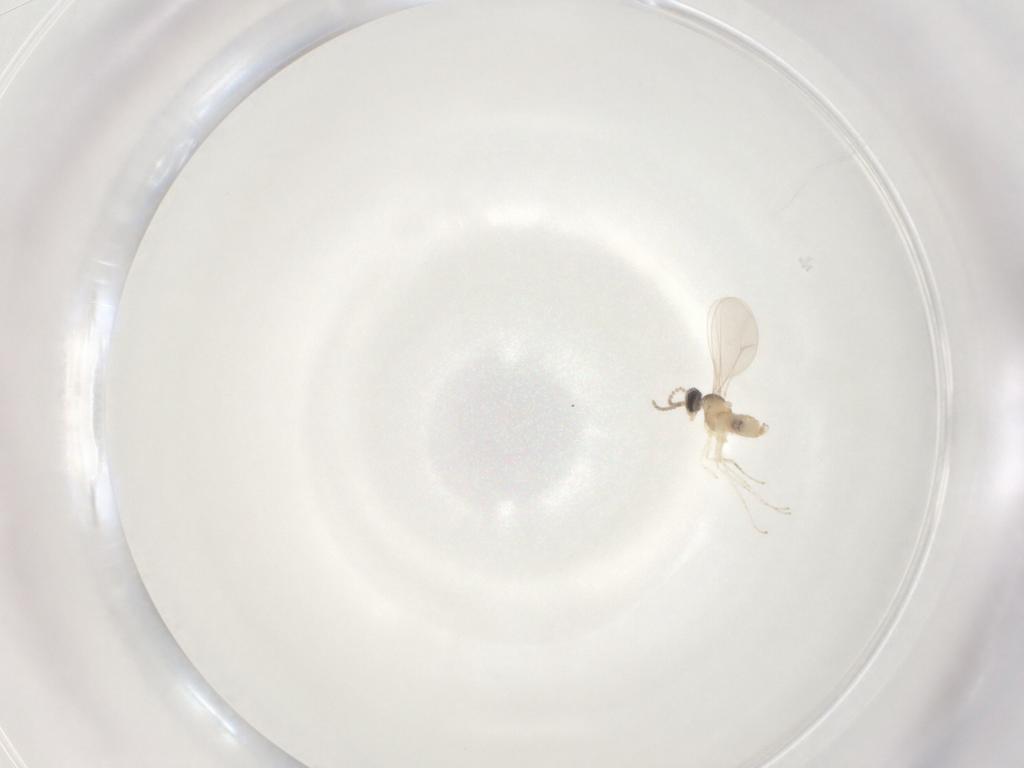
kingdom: Animalia
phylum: Arthropoda
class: Insecta
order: Diptera
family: Cecidomyiidae
